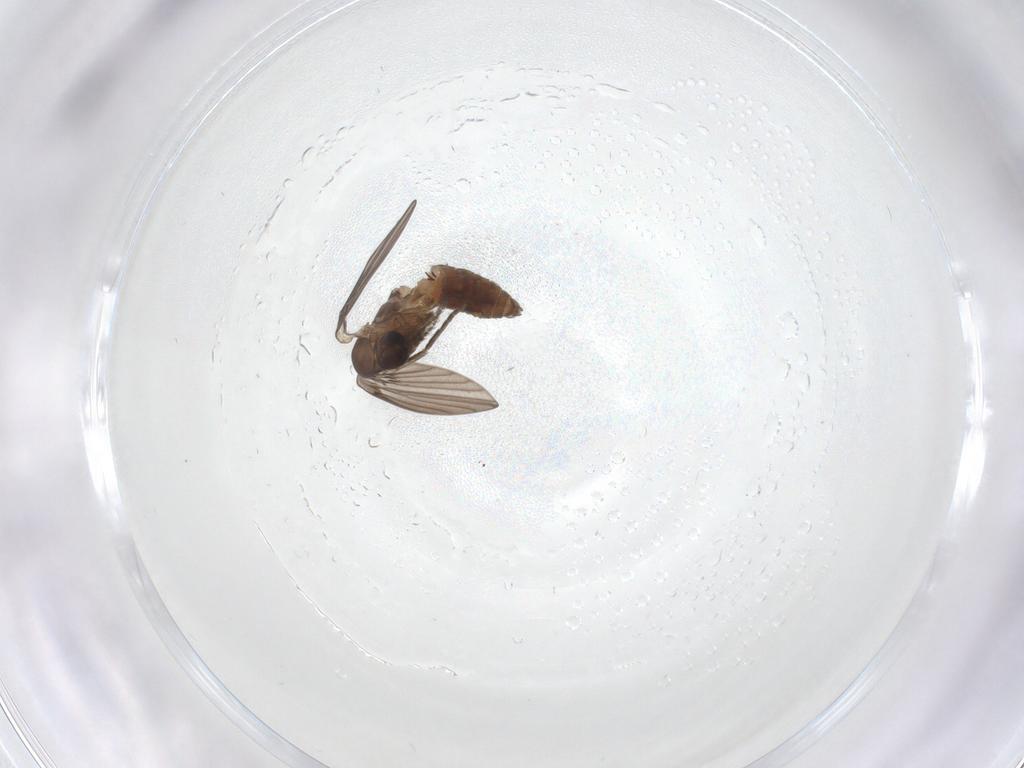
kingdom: Animalia
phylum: Arthropoda
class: Insecta
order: Diptera
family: Psychodidae
